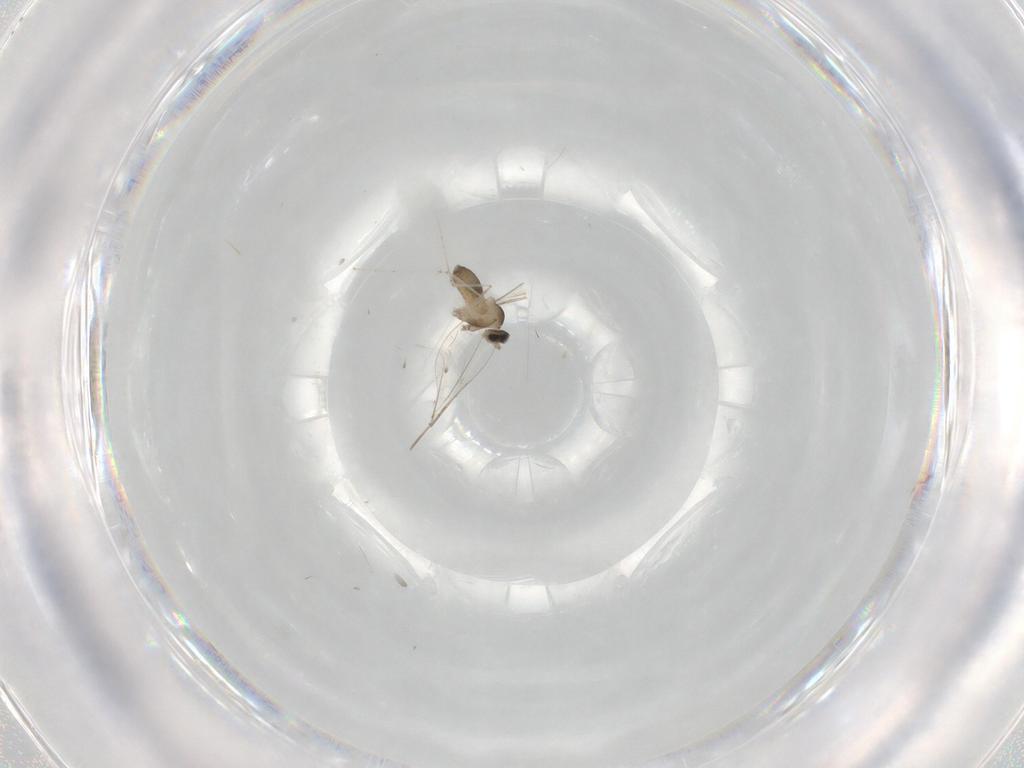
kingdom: Animalia
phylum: Arthropoda
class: Insecta
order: Diptera
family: Cecidomyiidae
